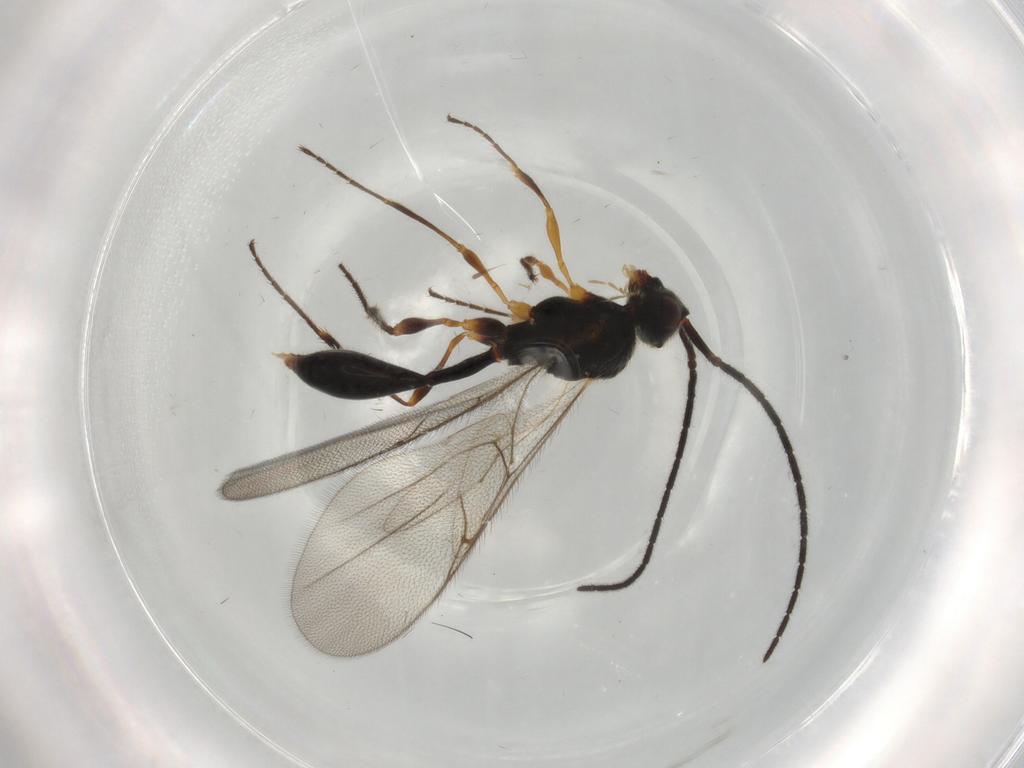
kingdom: Animalia
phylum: Arthropoda
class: Insecta
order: Hymenoptera
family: Diapriidae
